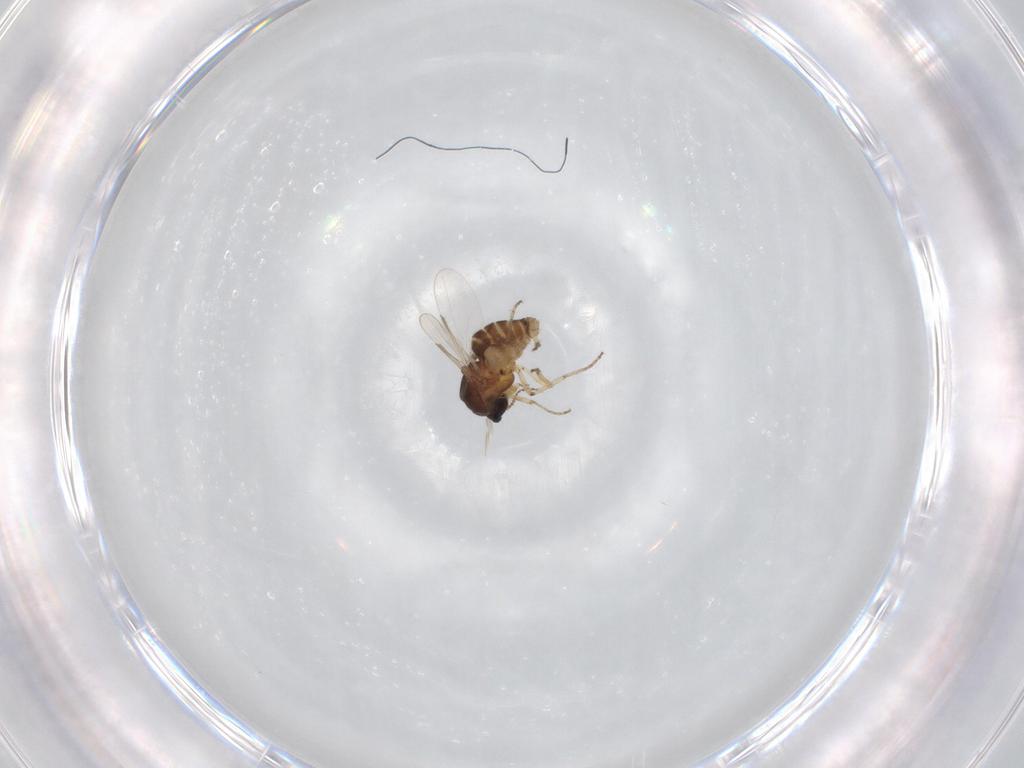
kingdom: Animalia
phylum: Arthropoda
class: Insecta
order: Diptera
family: Ceratopogonidae
